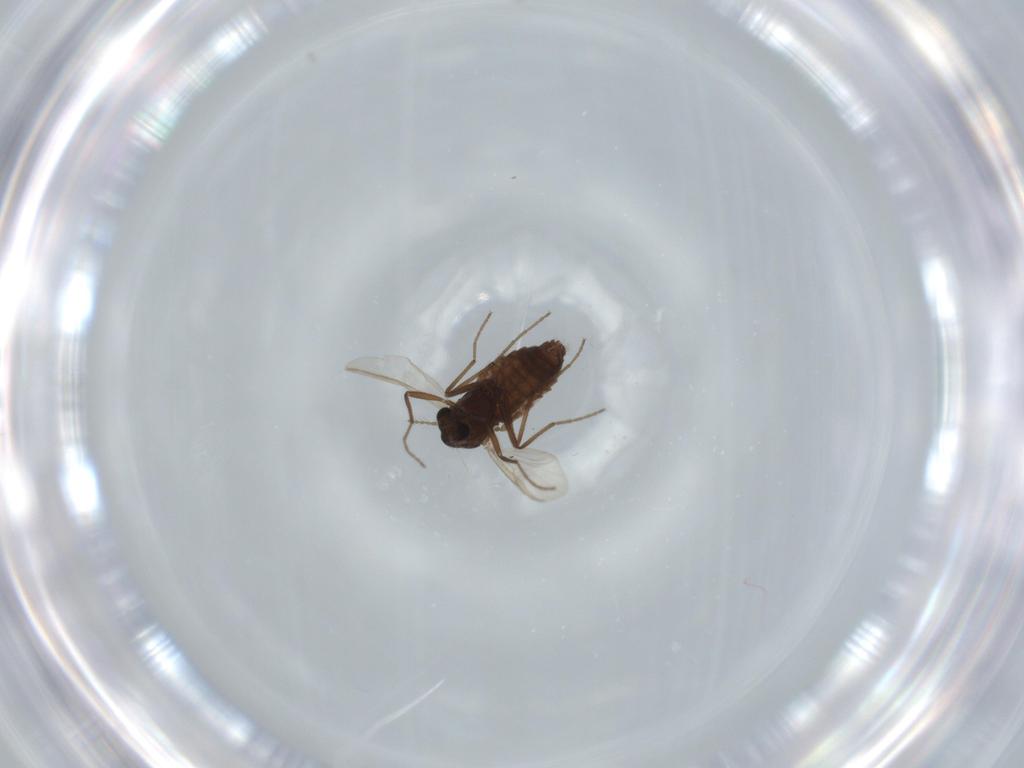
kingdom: Animalia
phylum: Arthropoda
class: Insecta
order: Diptera
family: Chironomidae
